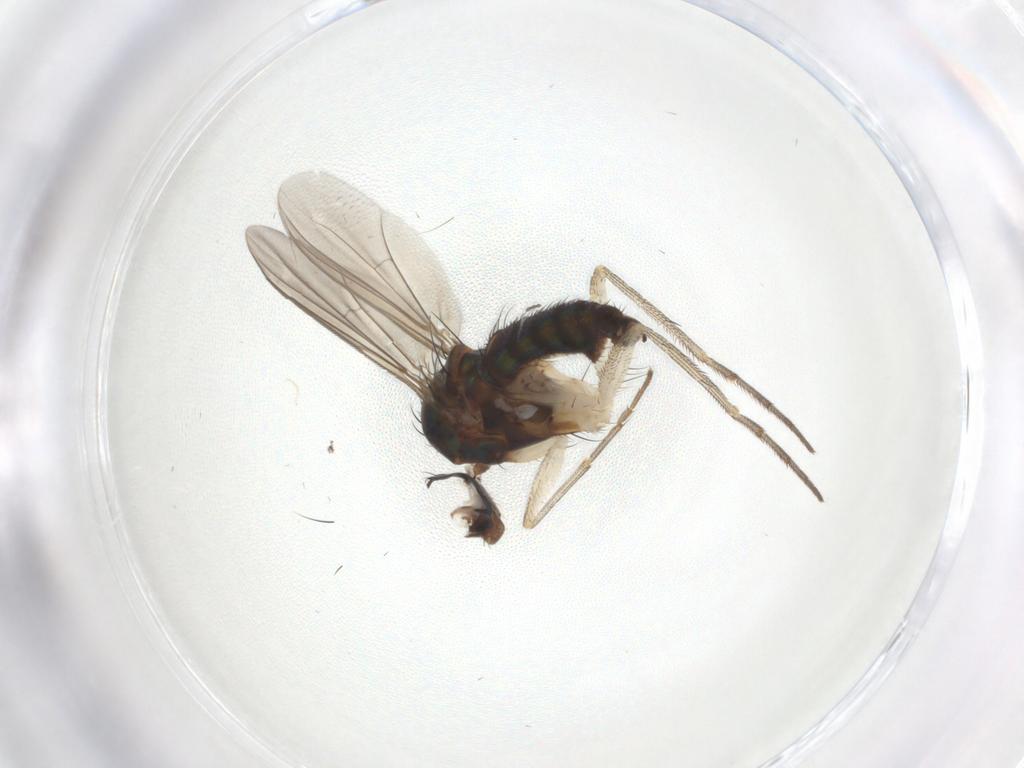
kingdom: Animalia
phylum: Arthropoda
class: Insecta
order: Diptera
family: Dolichopodidae
